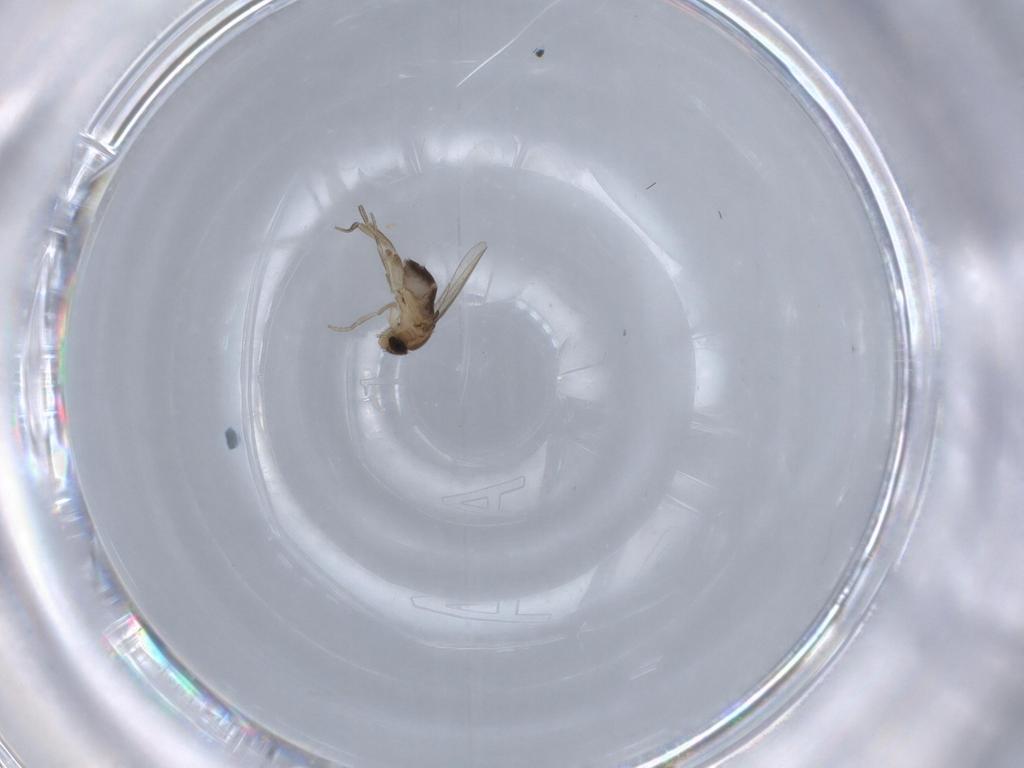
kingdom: Animalia
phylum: Arthropoda
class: Insecta
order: Diptera
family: Sciaridae
